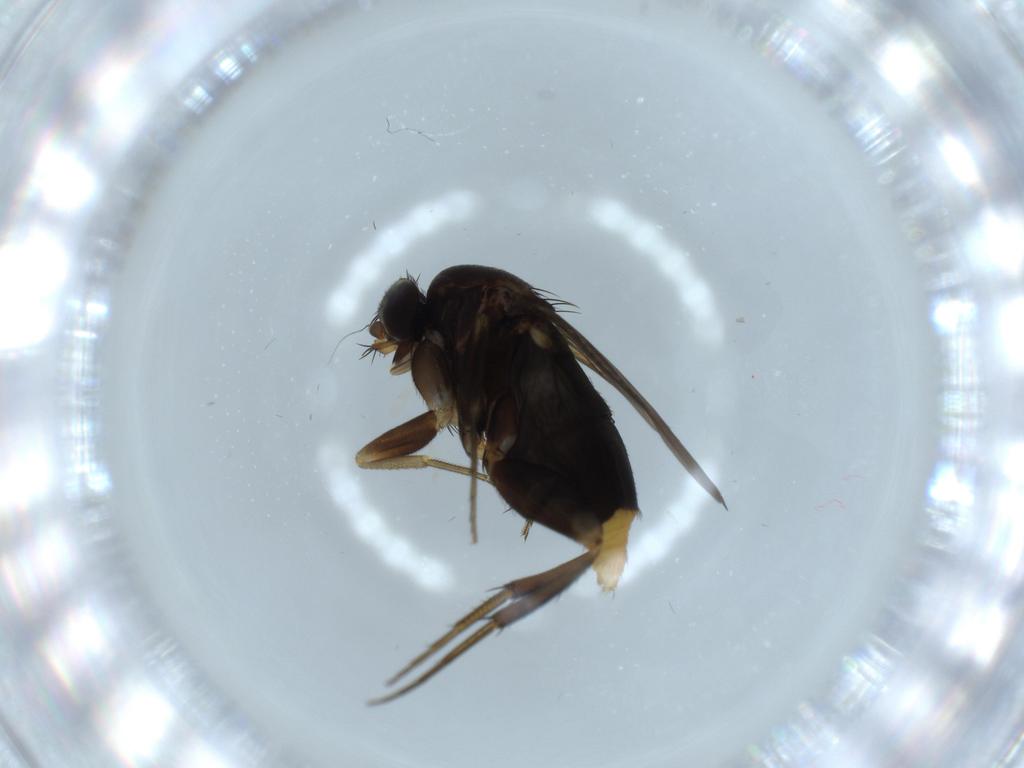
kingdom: Animalia
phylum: Arthropoda
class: Insecta
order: Diptera
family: Phoridae
